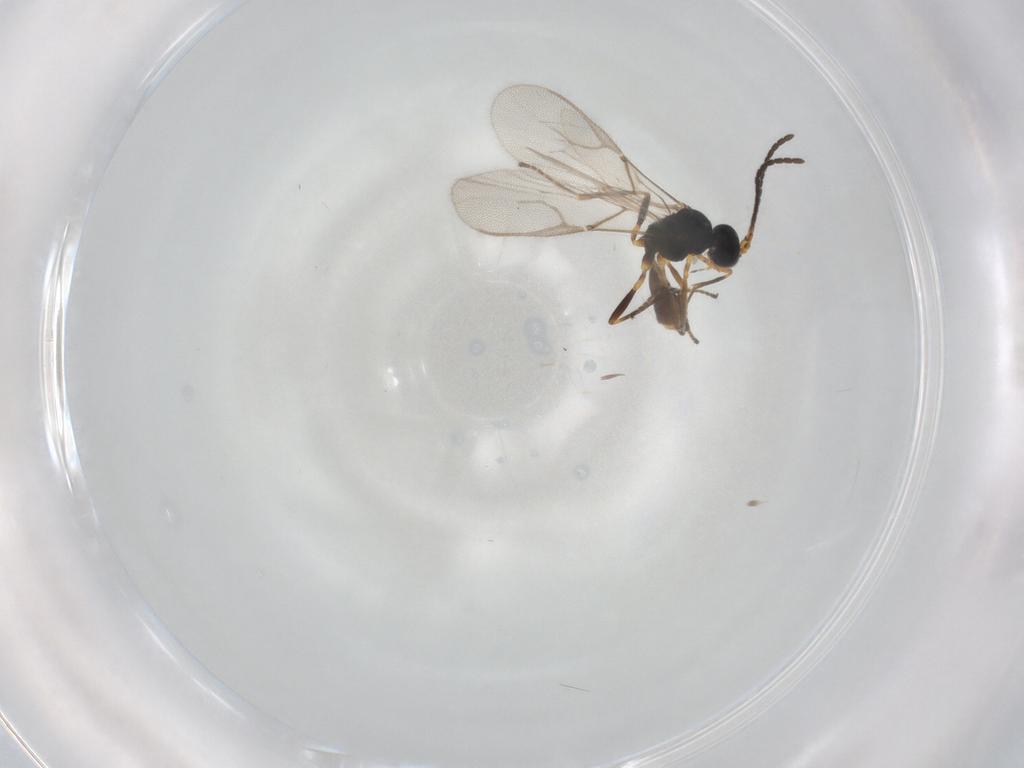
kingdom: Animalia
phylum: Arthropoda
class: Insecta
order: Hymenoptera
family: Braconidae
